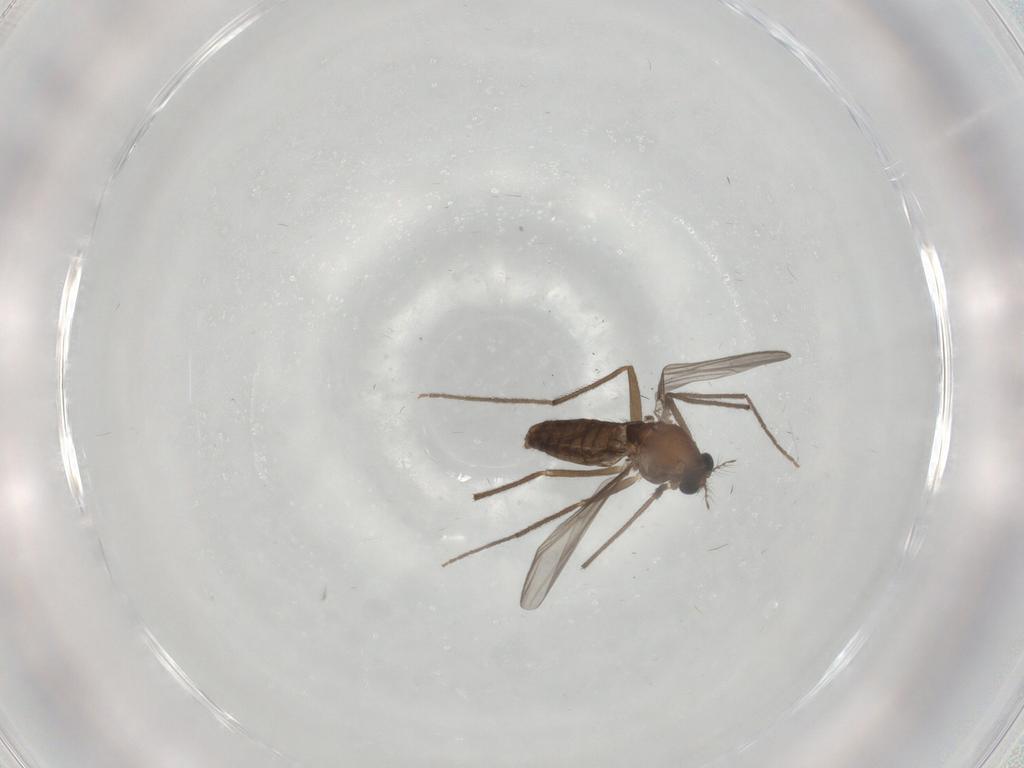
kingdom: Animalia
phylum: Arthropoda
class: Insecta
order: Diptera
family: Chironomidae
